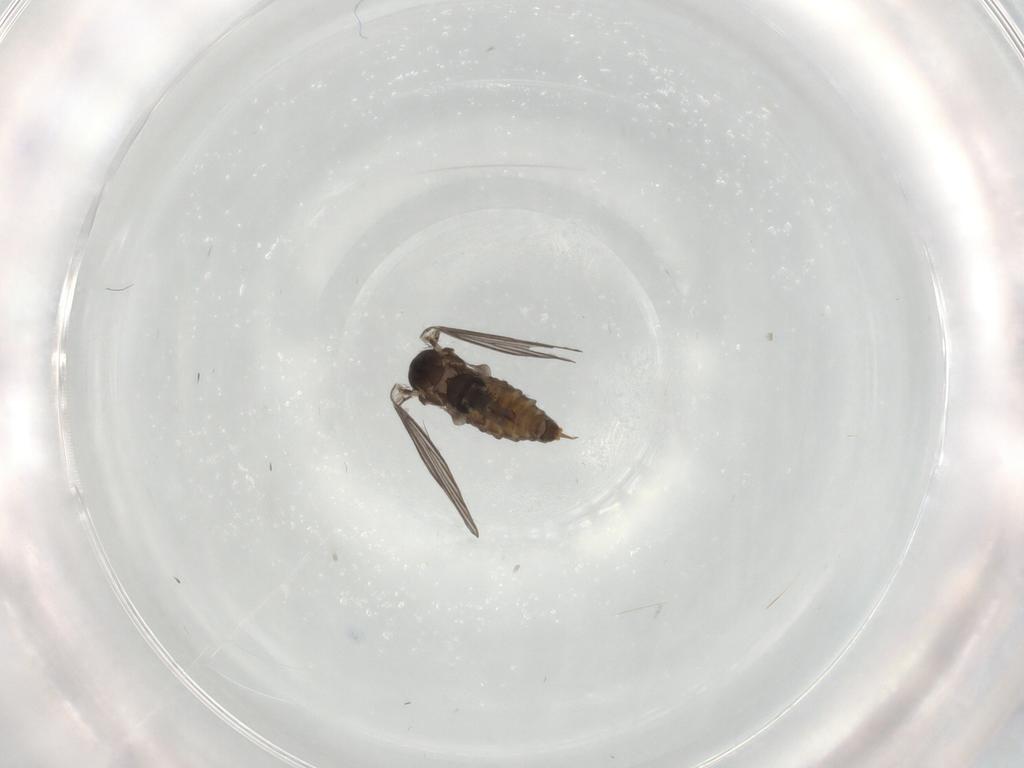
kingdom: Animalia
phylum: Arthropoda
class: Insecta
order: Diptera
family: Psychodidae
